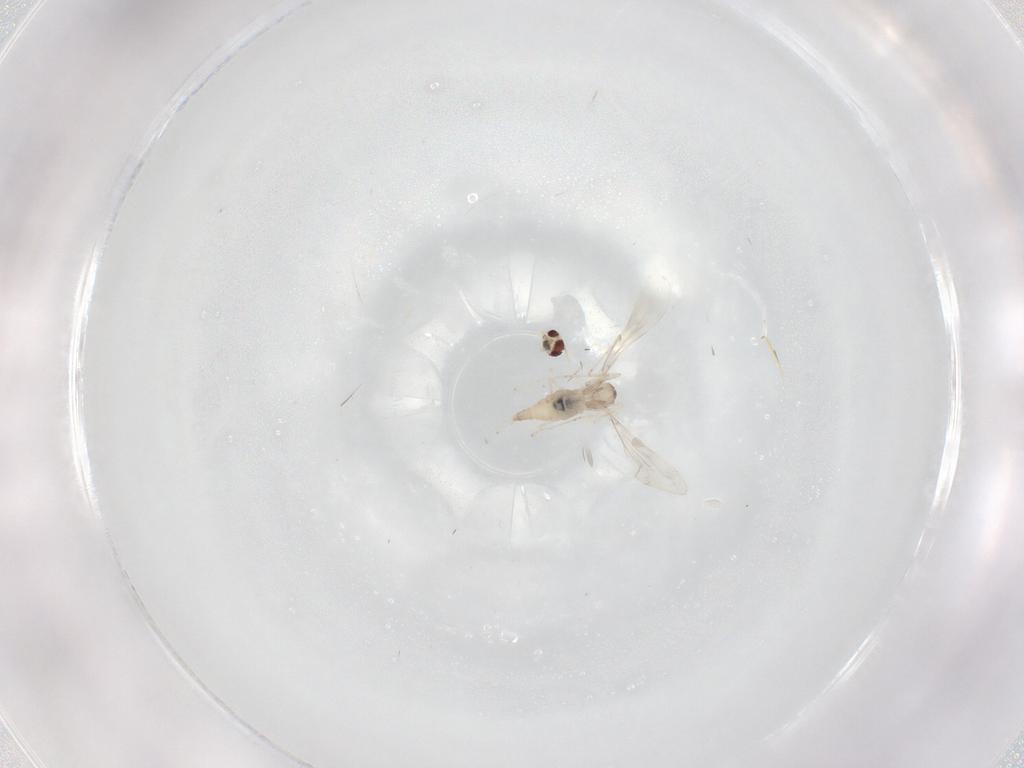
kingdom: Animalia
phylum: Arthropoda
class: Insecta
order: Diptera
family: Cecidomyiidae
